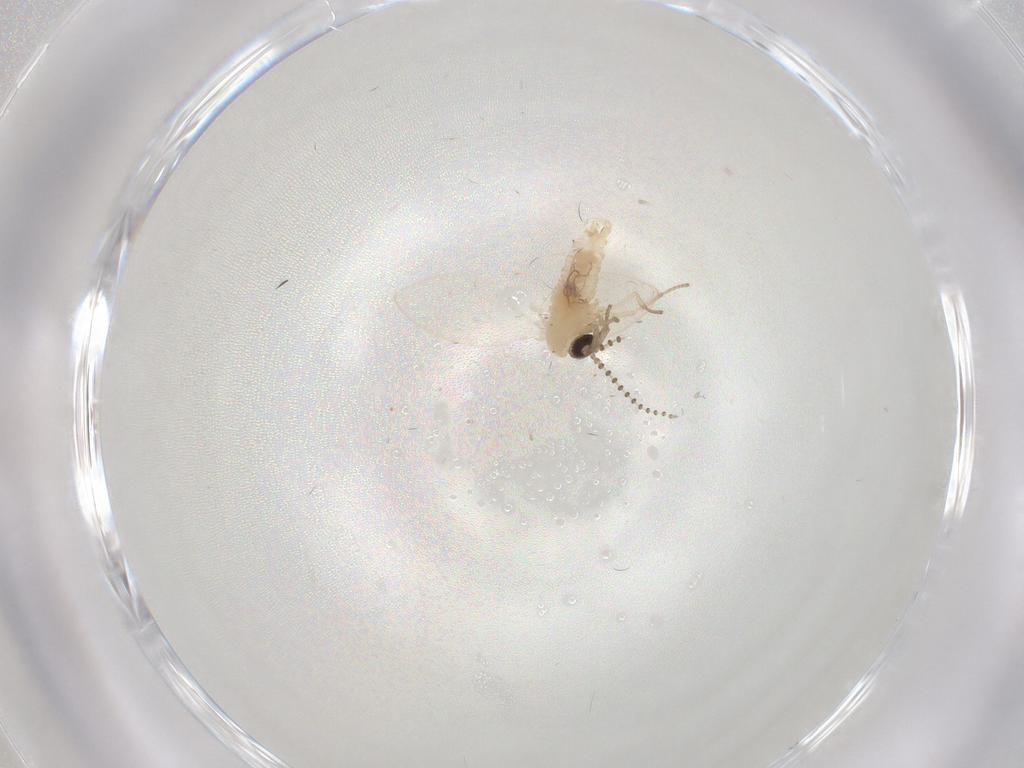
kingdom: Animalia
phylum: Arthropoda
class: Insecta
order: Diptera
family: Psychodidae
